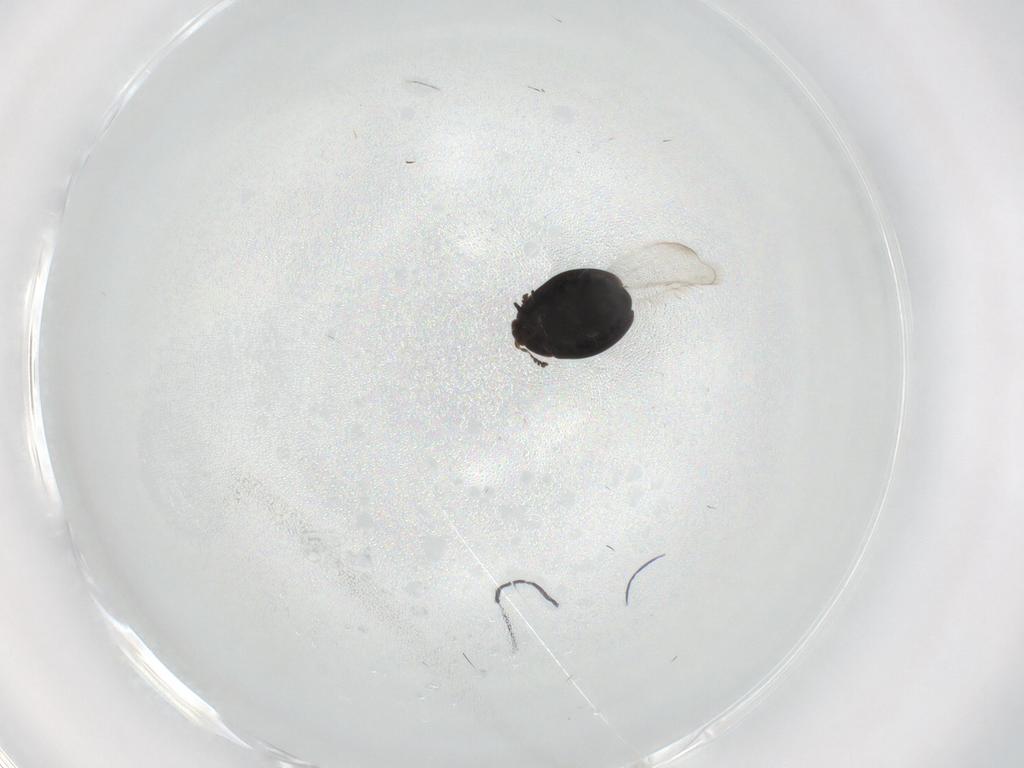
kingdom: Animalia
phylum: Arthropoda
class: Insecta
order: Coleoptera
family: Corylophidae
